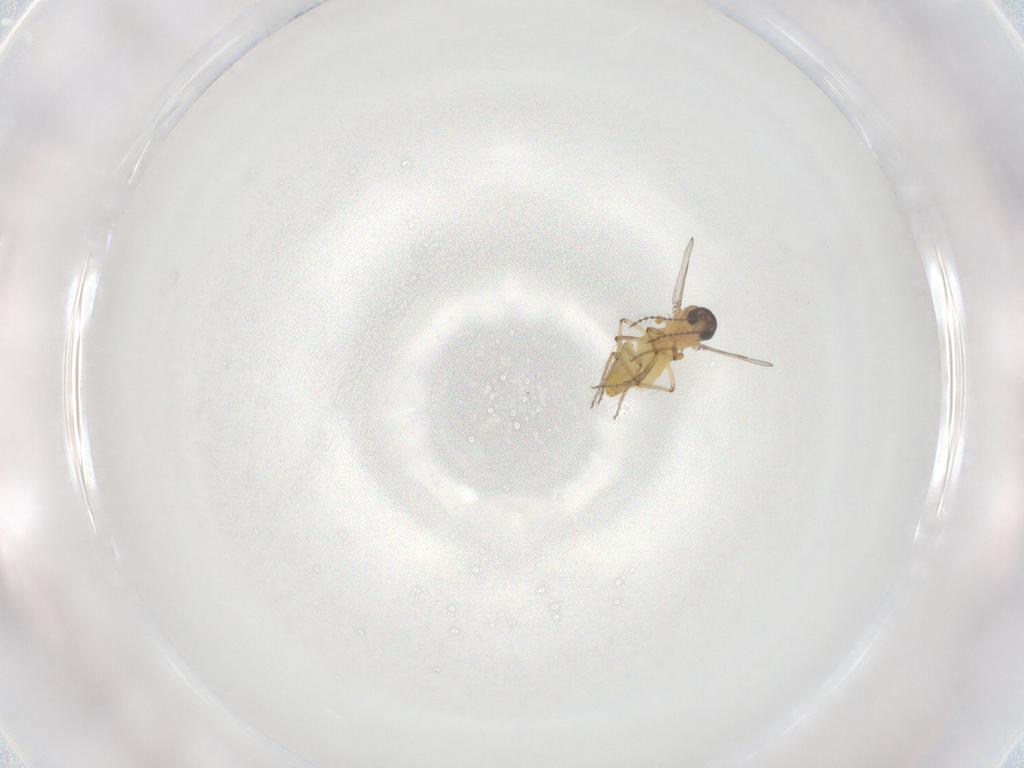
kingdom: Animalia
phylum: Arthropoda
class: Insecta
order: Diptera
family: Ceratopogonidae
